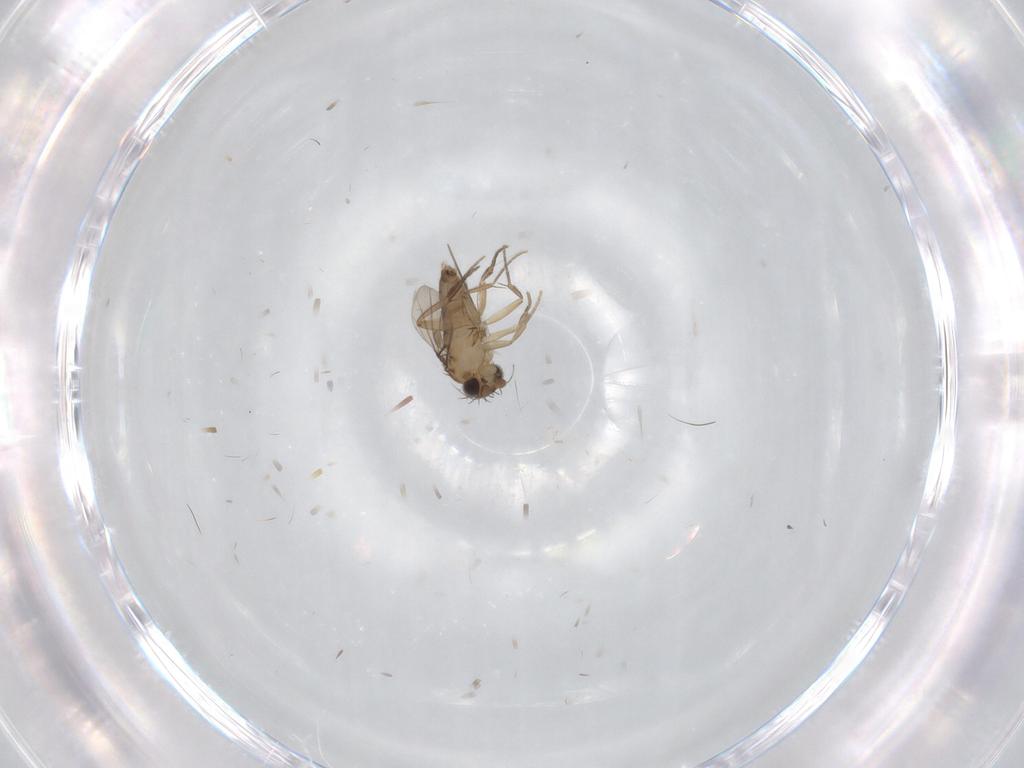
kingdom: Animalia
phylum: Arthropoda
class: Insecta
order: Diptera
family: Phoridae
